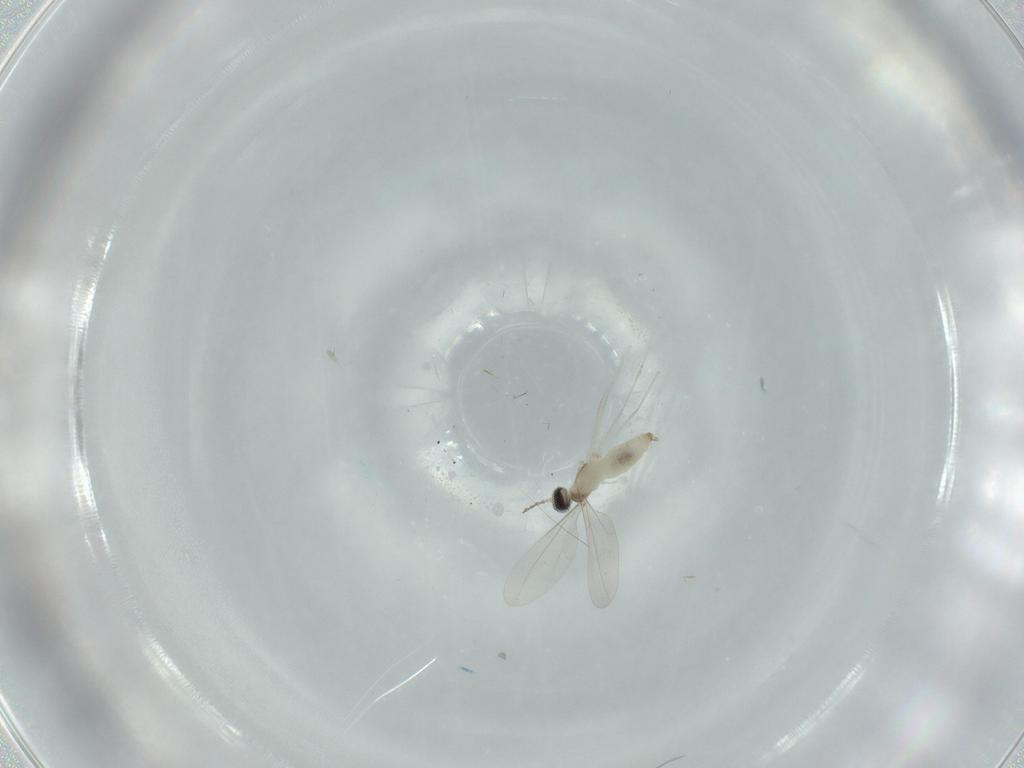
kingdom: Animalia
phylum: Arthropoda
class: Insecta
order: Diptera
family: Cecidomyiidae
